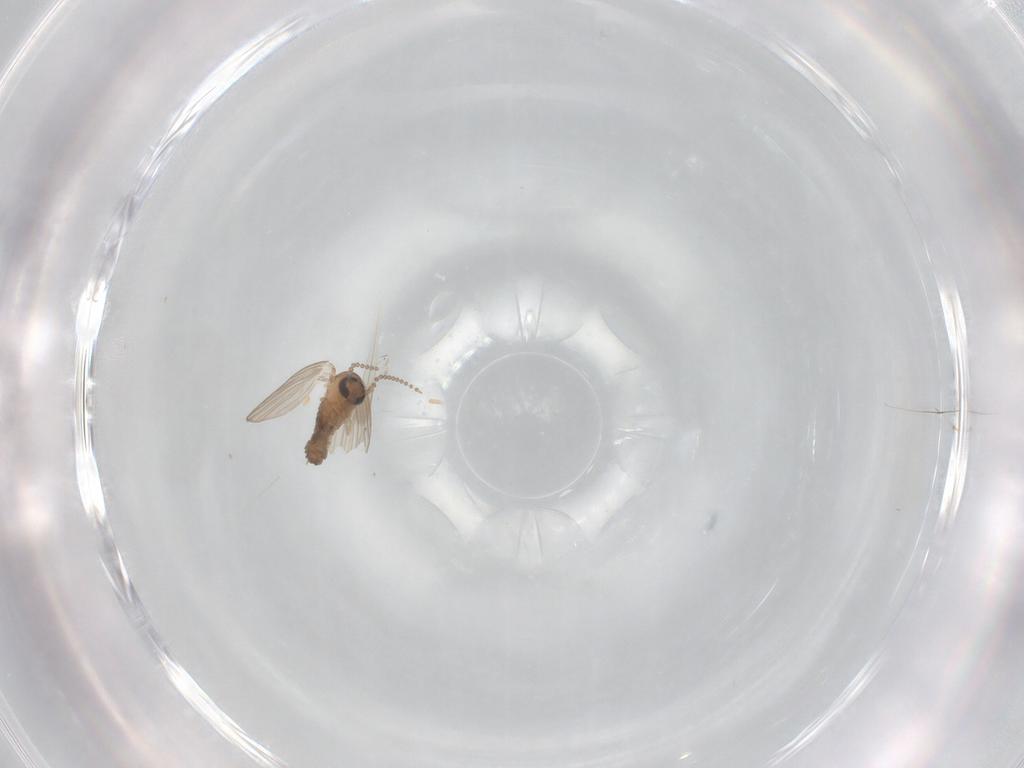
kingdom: Animalia
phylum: Arthropoda
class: Insecta
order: Diptera
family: Psychodidae
